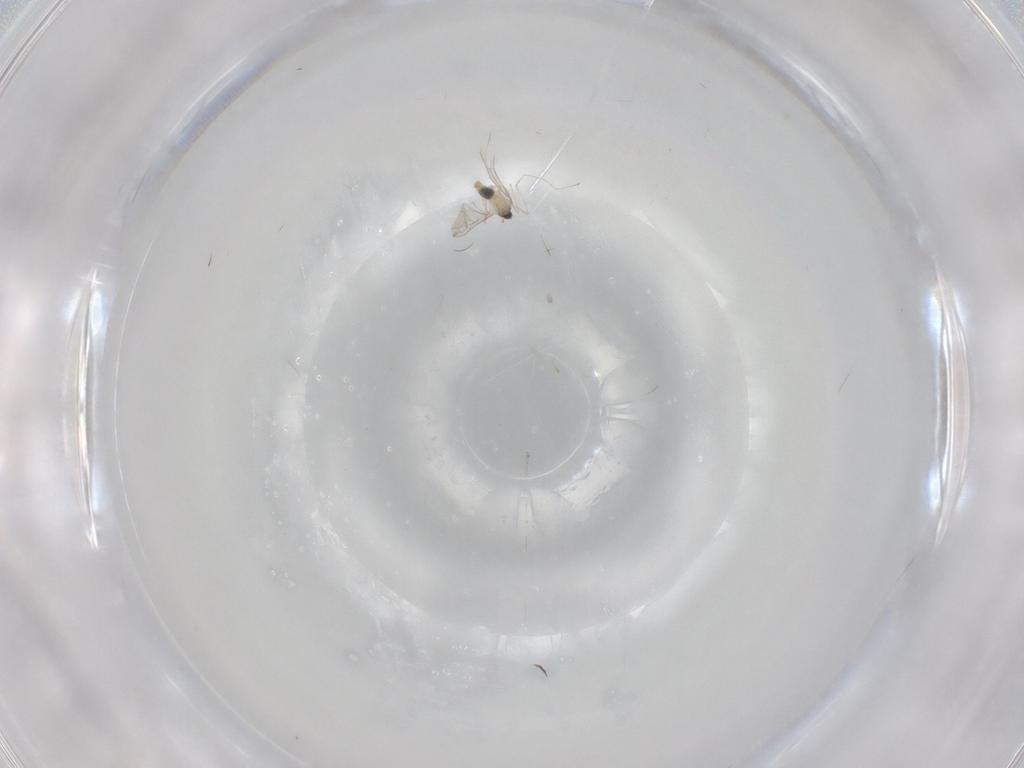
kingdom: Animalia
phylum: Arthropoda
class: Insecta
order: Diptera
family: Cecidomyiidae
